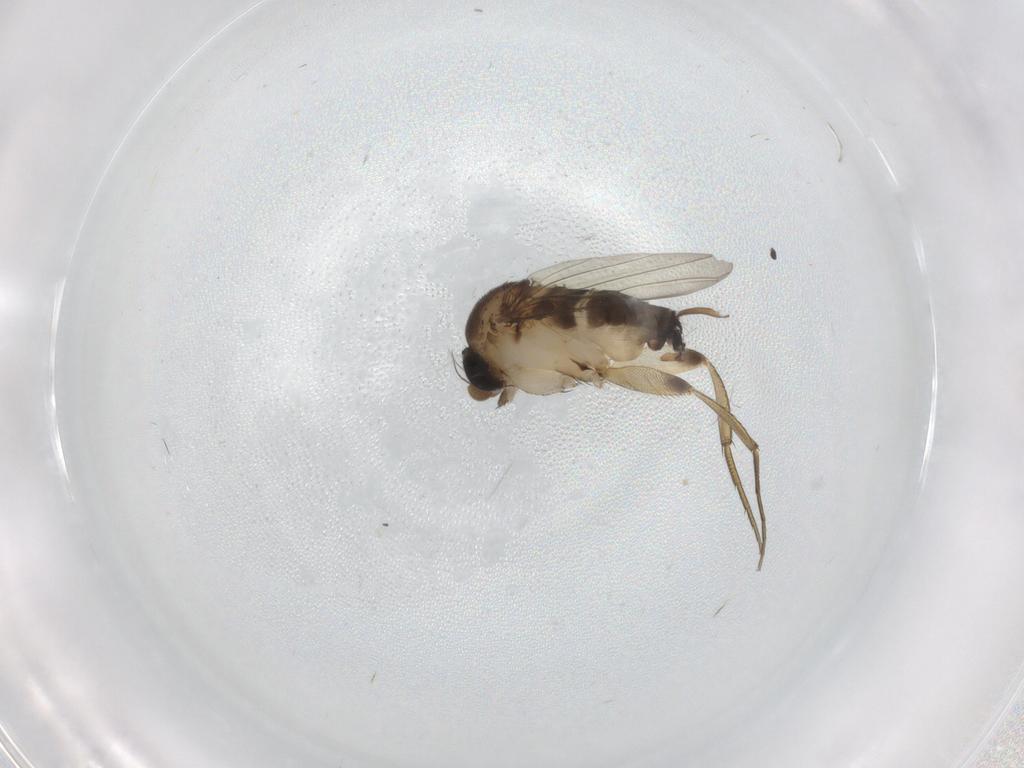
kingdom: Animalia
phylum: Arthropoda
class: Insecta
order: Diptera
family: Phoridae
